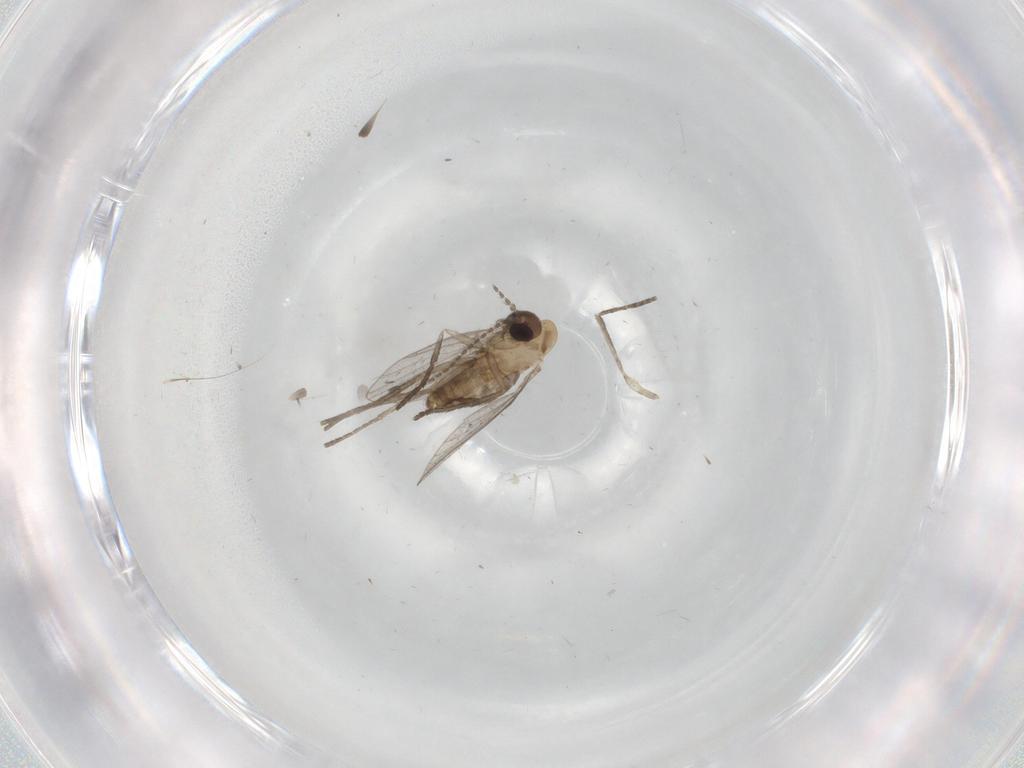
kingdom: Animalia
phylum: Arthropoda
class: Insecta
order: Diptera
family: Psychodidae
